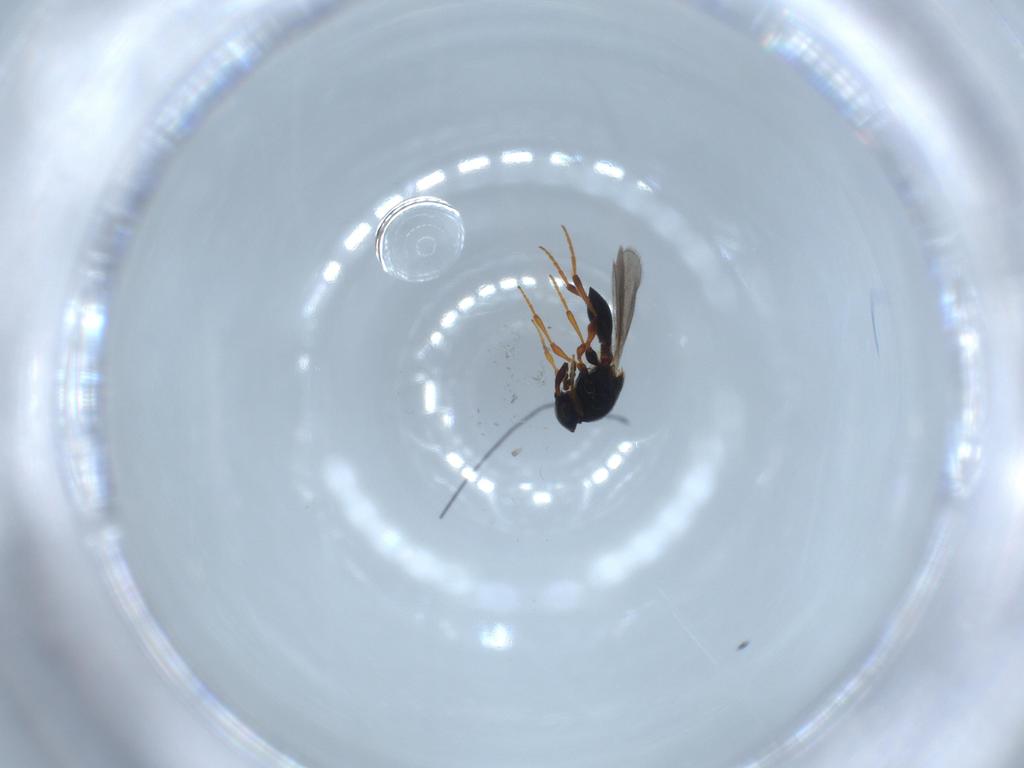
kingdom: Animalia
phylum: Arthropoda
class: Insecta
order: Hymenoptera
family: Platygastridae
